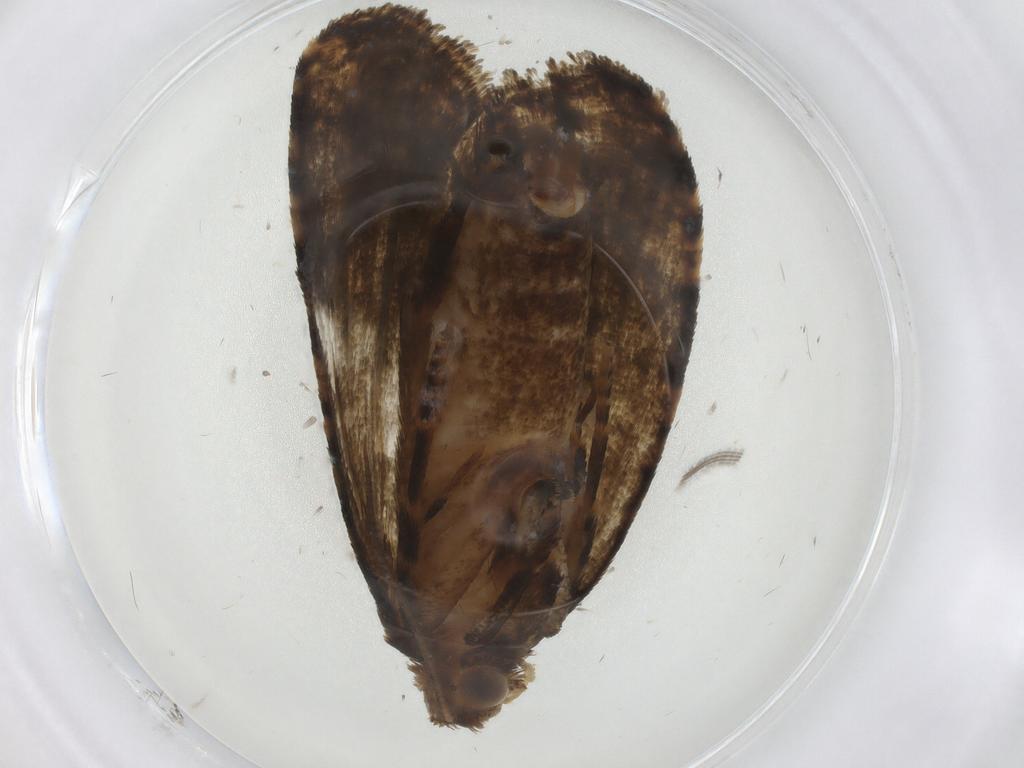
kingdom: Animalia
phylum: Arthropoda
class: Insecta
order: Lepidoptera
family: Tortricidae
